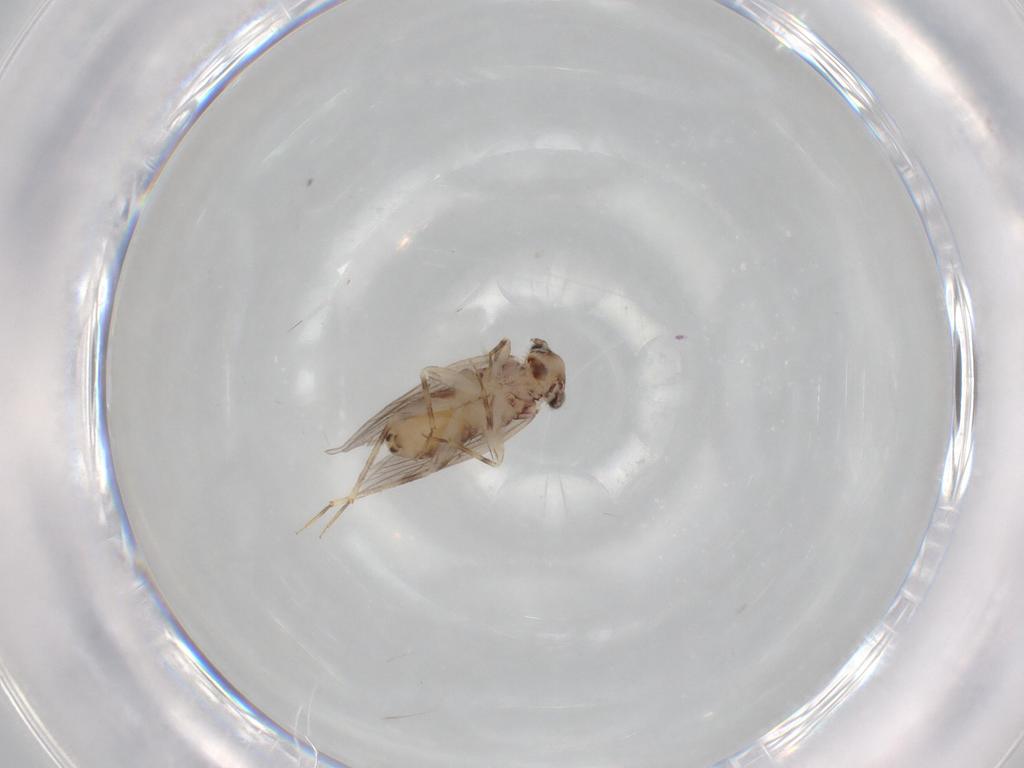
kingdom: Animalia
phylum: Arthropoda
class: Insecta
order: Psocodea
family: Lepidopsocidae
